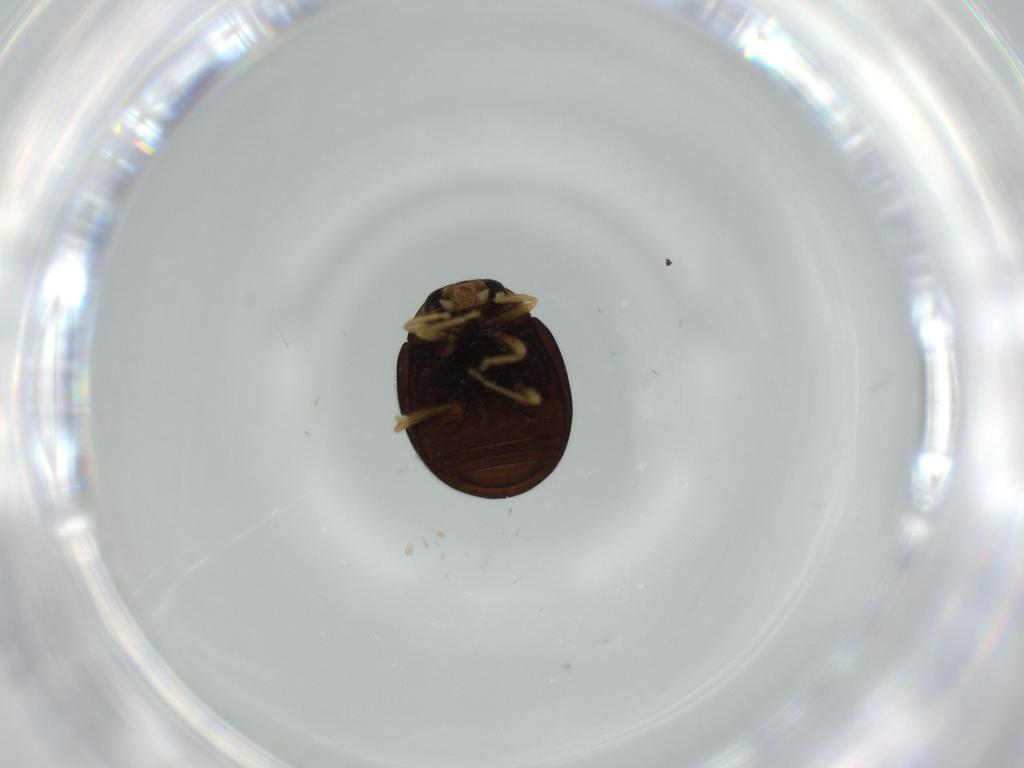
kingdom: Animalia
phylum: Arthropoda
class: Insecta
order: Coleoptera
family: Coccinellidae
